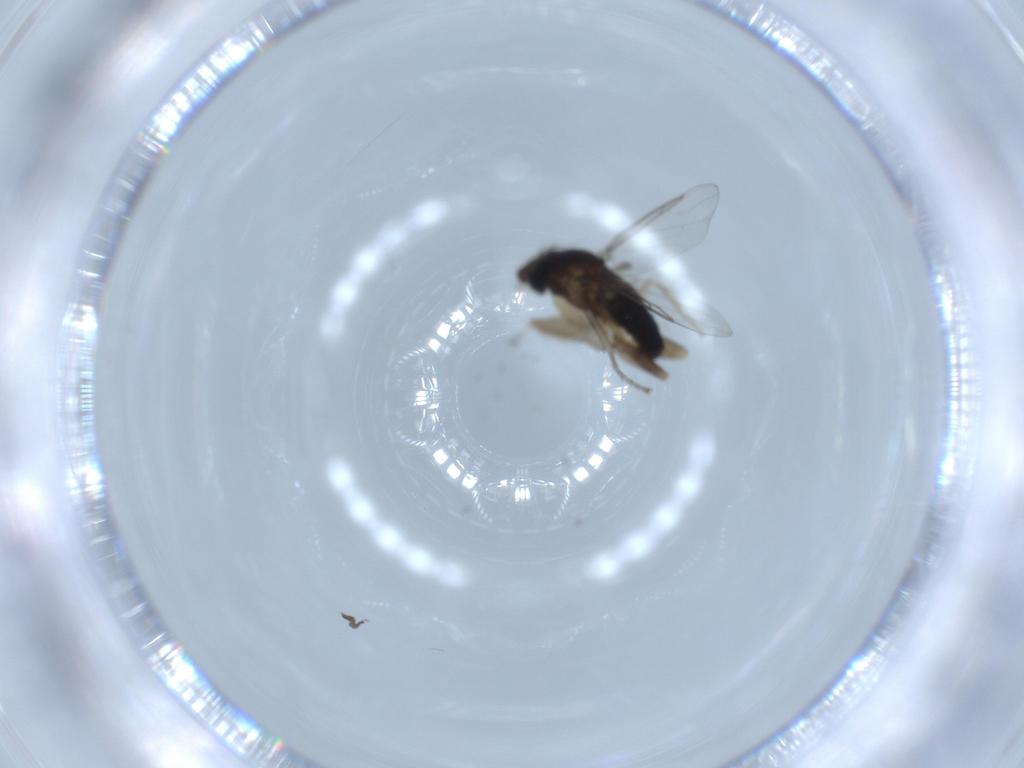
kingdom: Animalia
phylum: Arthropoda
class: Insecta
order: Diptera
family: Phoridae
